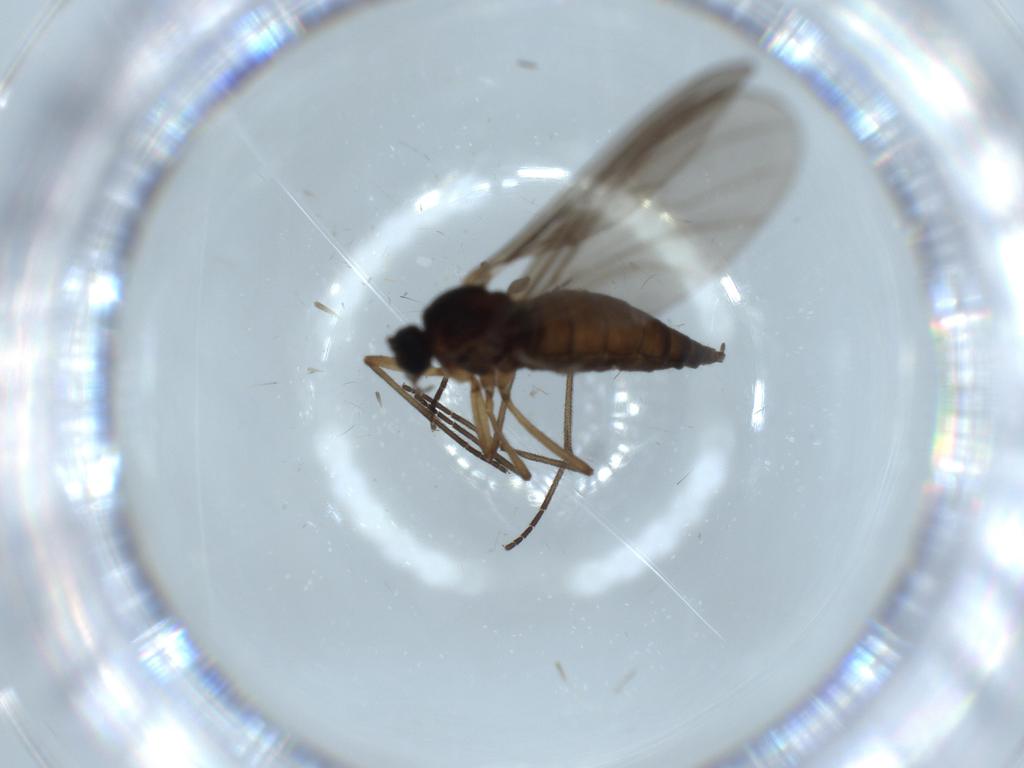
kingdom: Animalia
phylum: Arthropoda
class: Insecta
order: Diptera
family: Sciaridae
